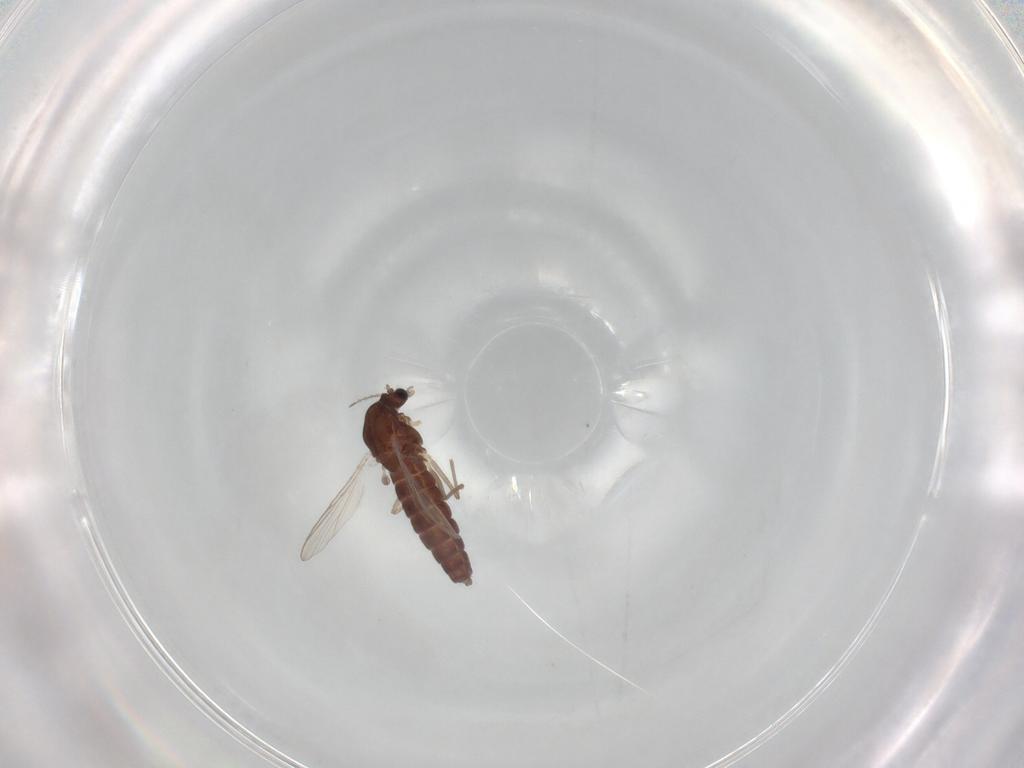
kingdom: Animalia
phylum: Arthropoda
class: Insecta
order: Diptera
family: Chironomidae
